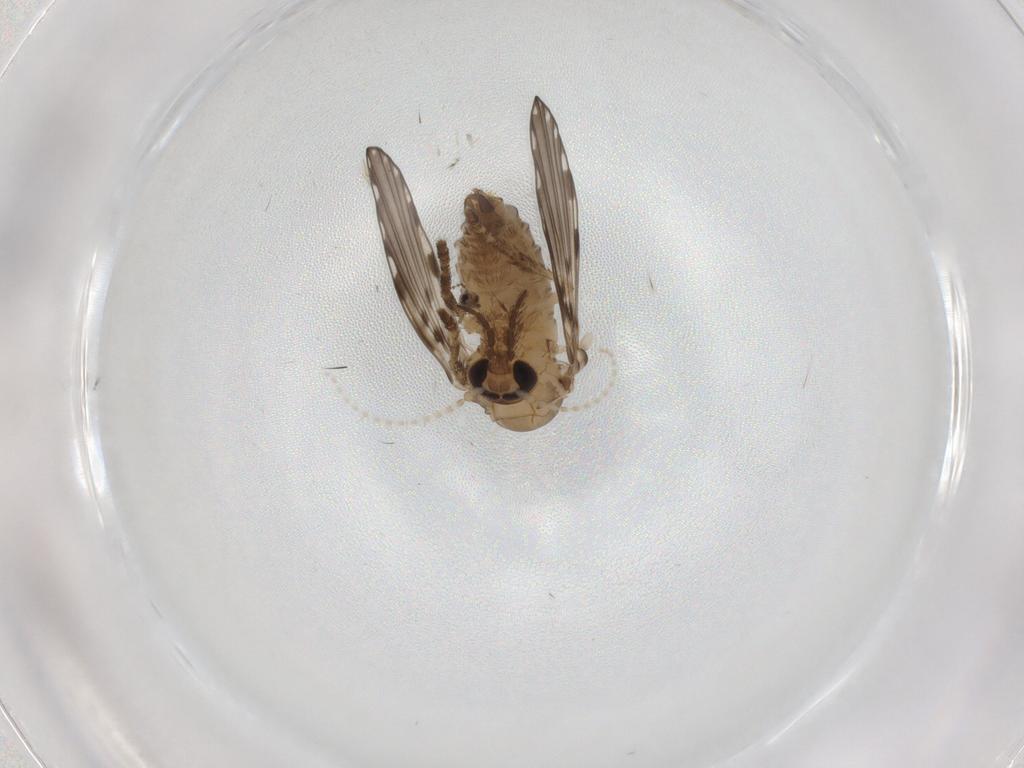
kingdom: Animalia
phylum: Arthropoda
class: Insecta
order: Diptera
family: Psychodidae
